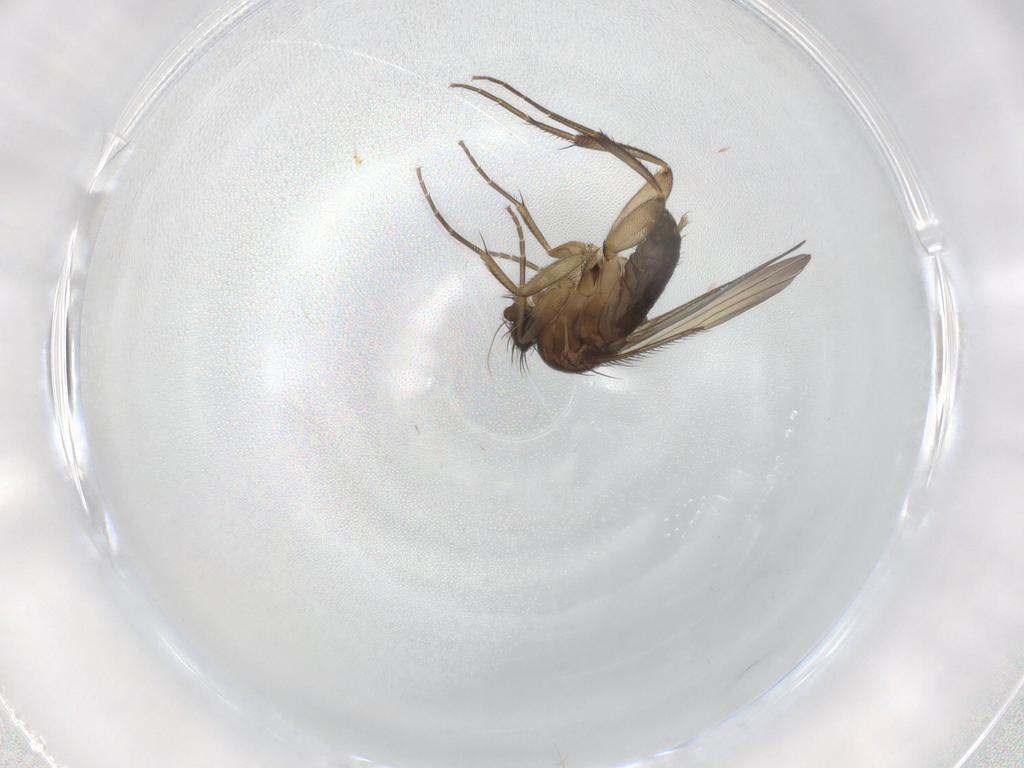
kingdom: Animalia
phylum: Arthropoda
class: Insecta
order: Diptera
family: Phoridae
